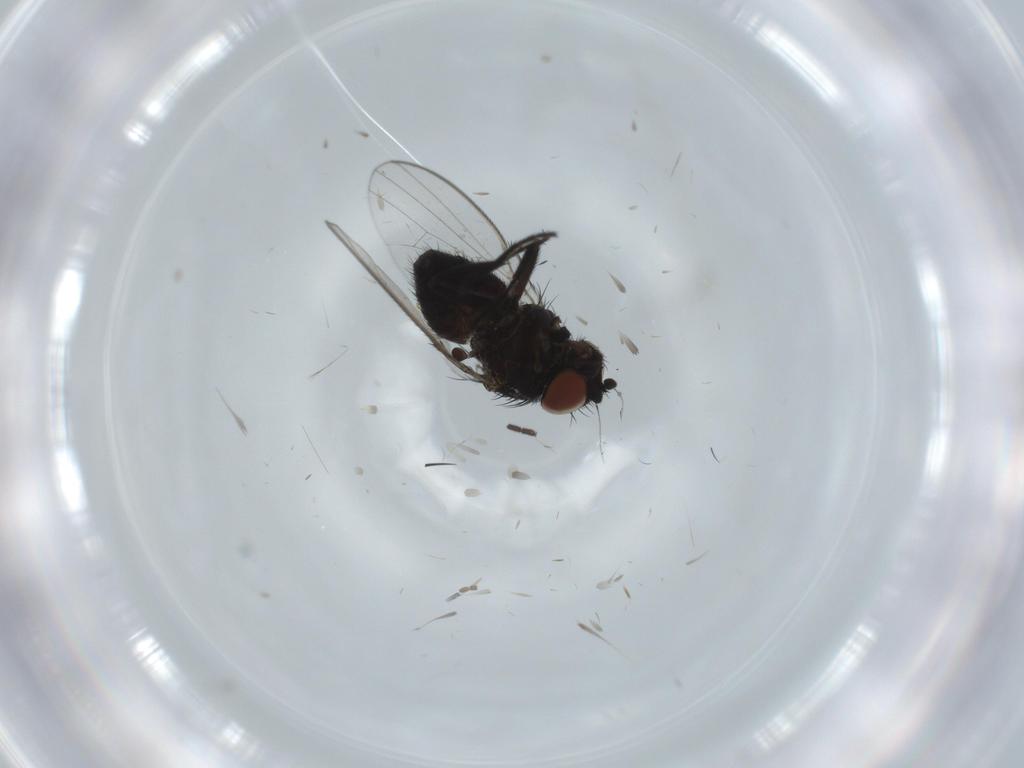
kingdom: Animalia
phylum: Arthropoda
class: Insecta
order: Diptera
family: Milichiidae
